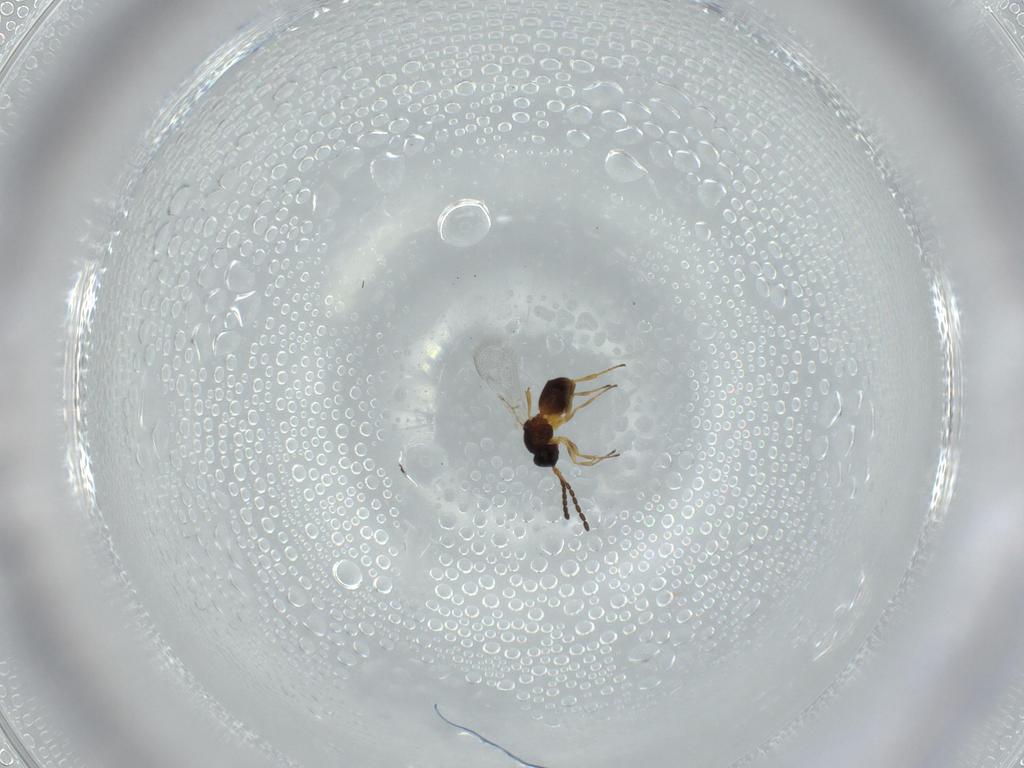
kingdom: Animalia
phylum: Arthropoda
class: Insecta
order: Hymenoptera
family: Figitidae
